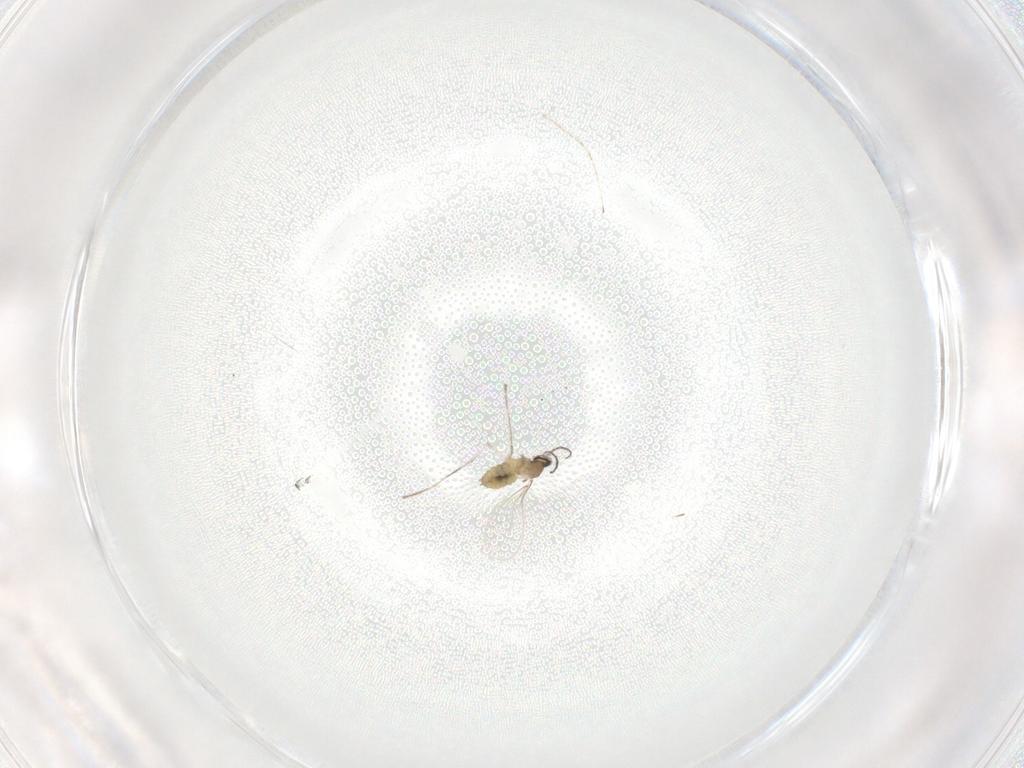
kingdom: Animalia
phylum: Arthropoda
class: Insecta
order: Diptera
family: Cecidomyiidae
